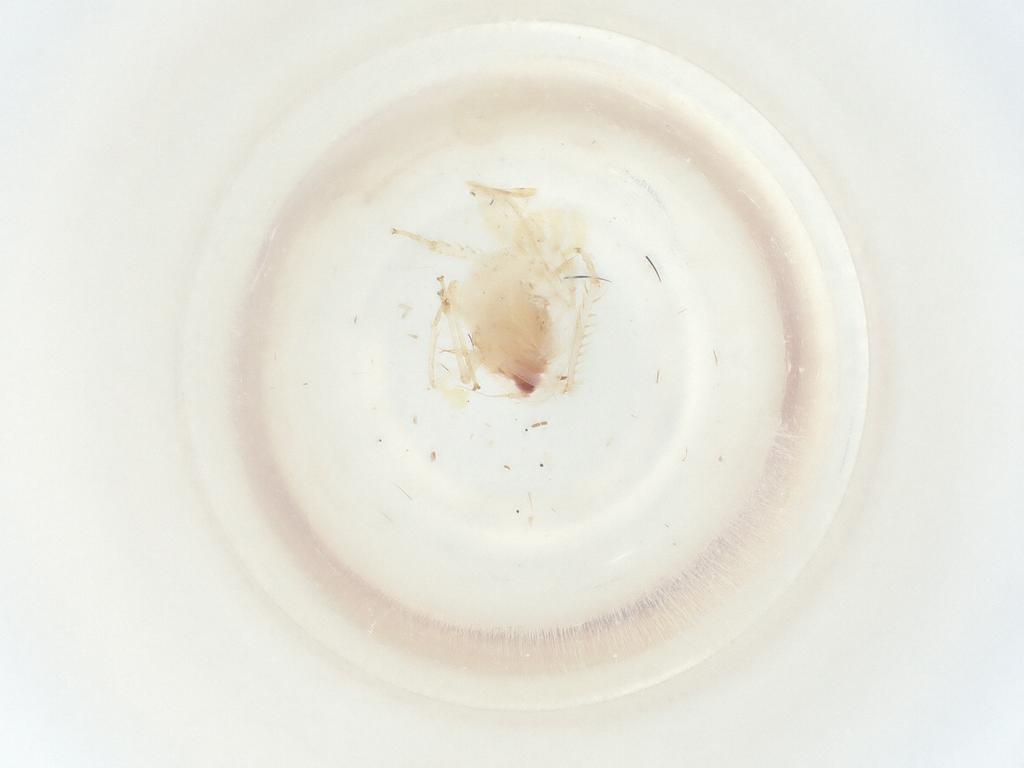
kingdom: Animalia
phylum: Arthropoda
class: Insecta
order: Hemiptera
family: Cicadellidae
